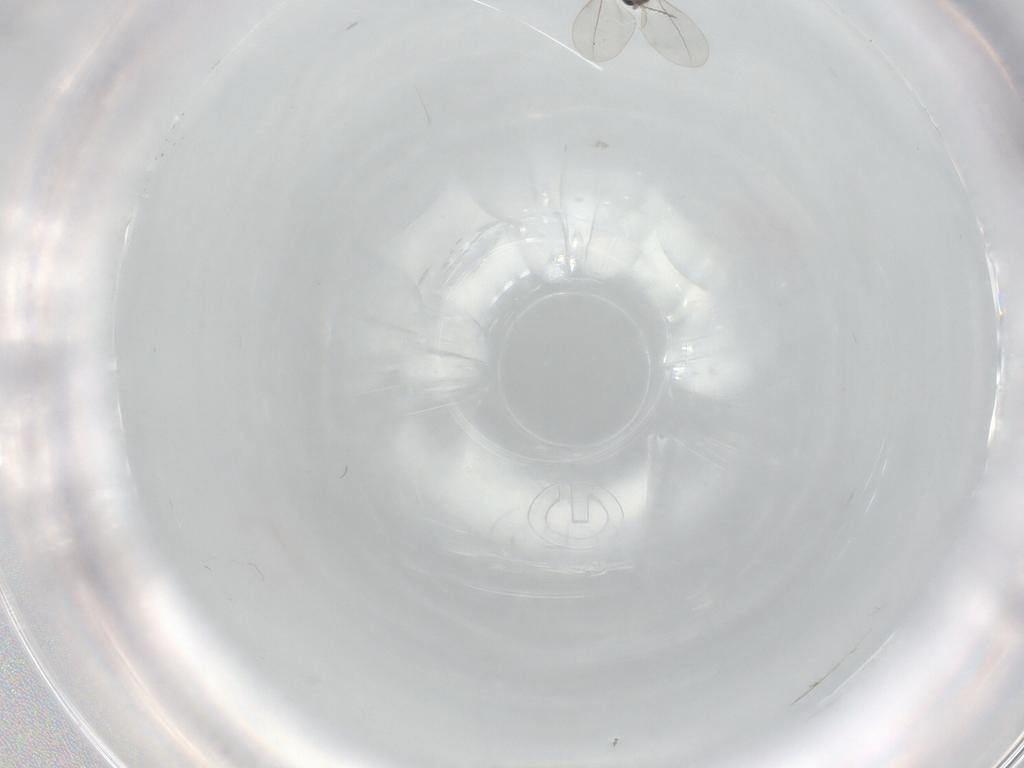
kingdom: Animalia
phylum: Arthropoda
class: Insecta
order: Diptera
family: Cecidomyiidae
